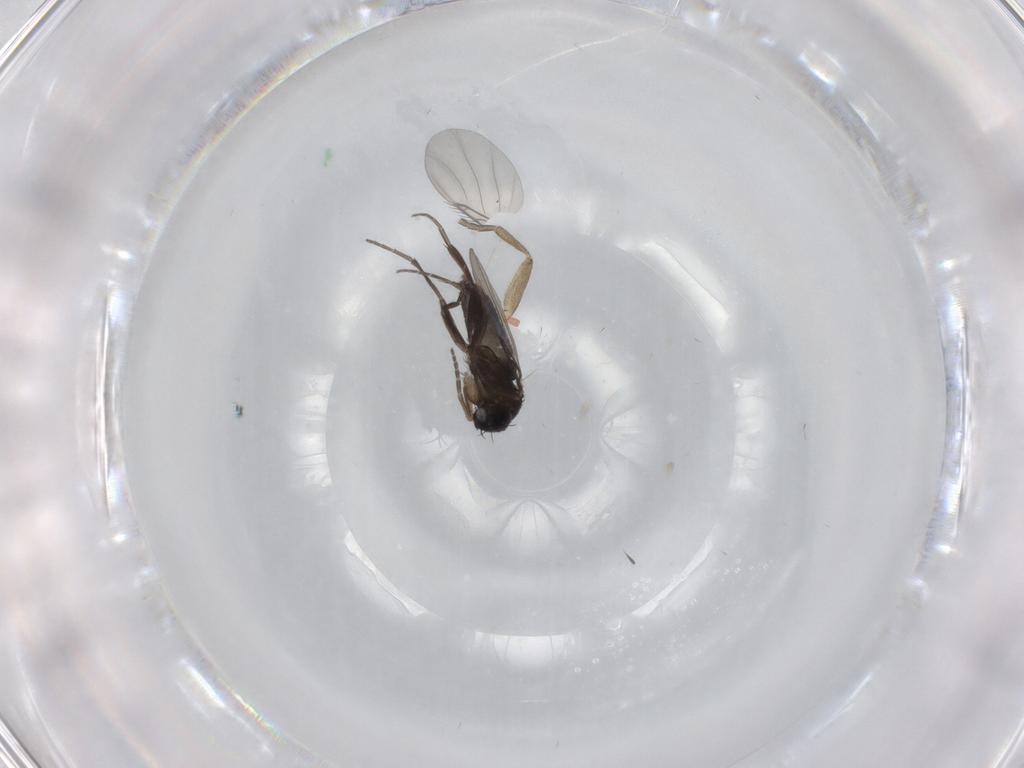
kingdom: Animalia
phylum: Arthropoda
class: Insecta
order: Diptera
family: Phoridae
